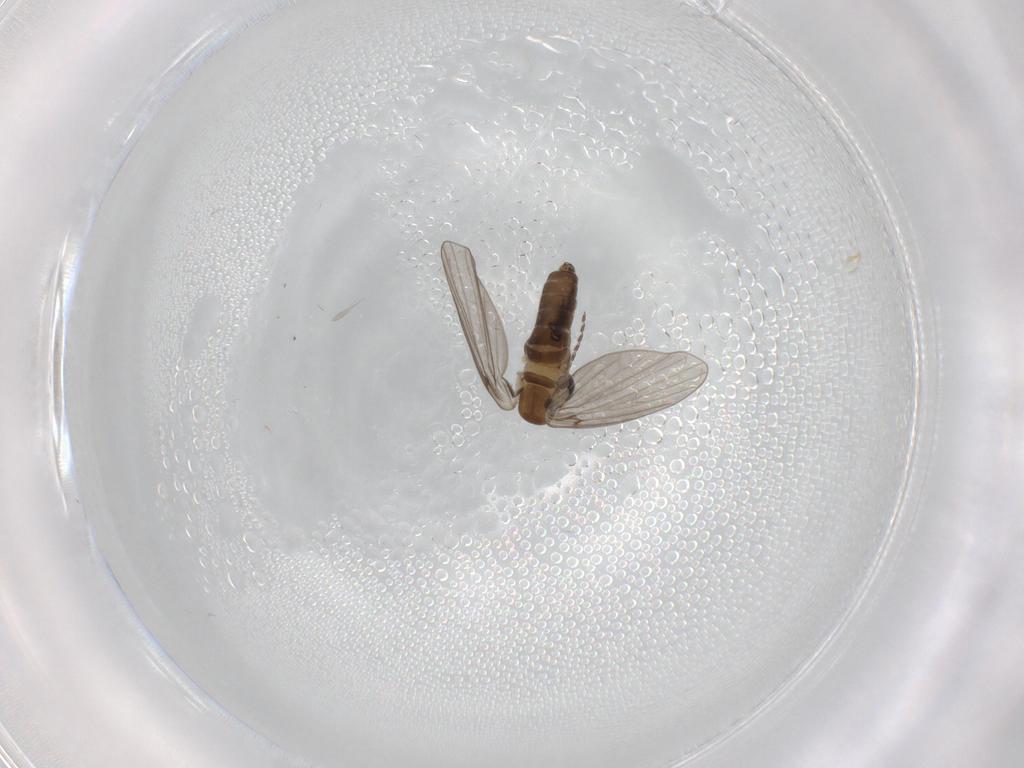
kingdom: Animalia
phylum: Arthropoda
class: Insecta
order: Diptera
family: Phoridae
